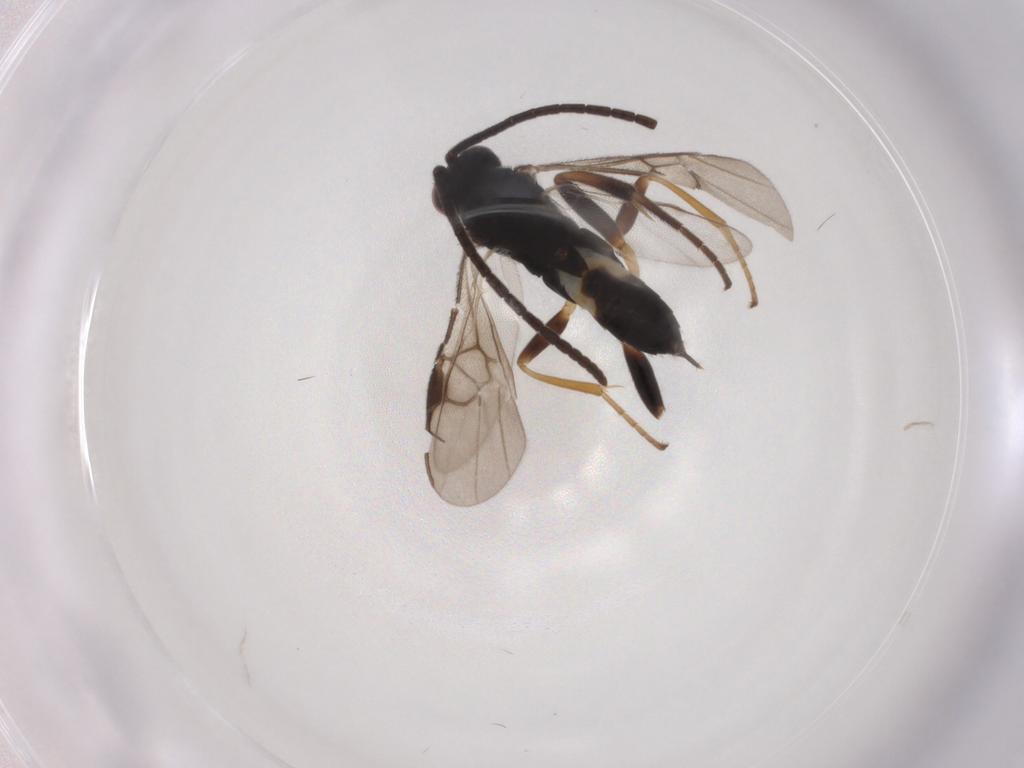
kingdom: Animalia
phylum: Arthropoda
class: Insecta
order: Hymenoptera
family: Braconidae
